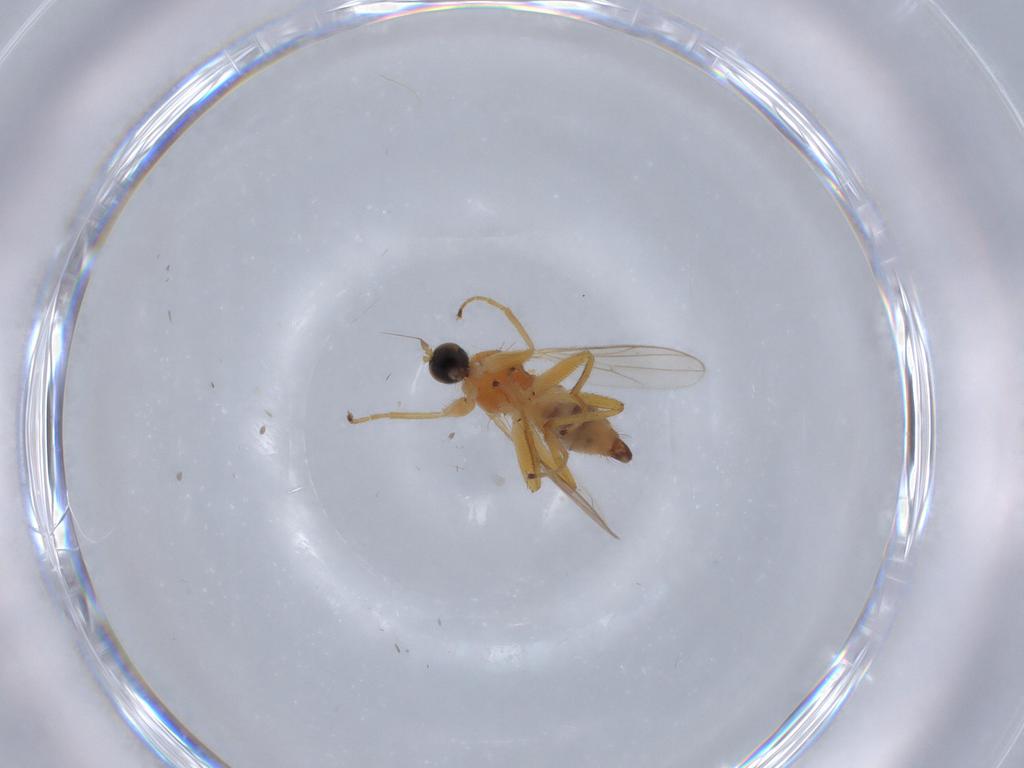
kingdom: Animalia
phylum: Arthropoda
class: Insecta
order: Diptera
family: Hybotidae
